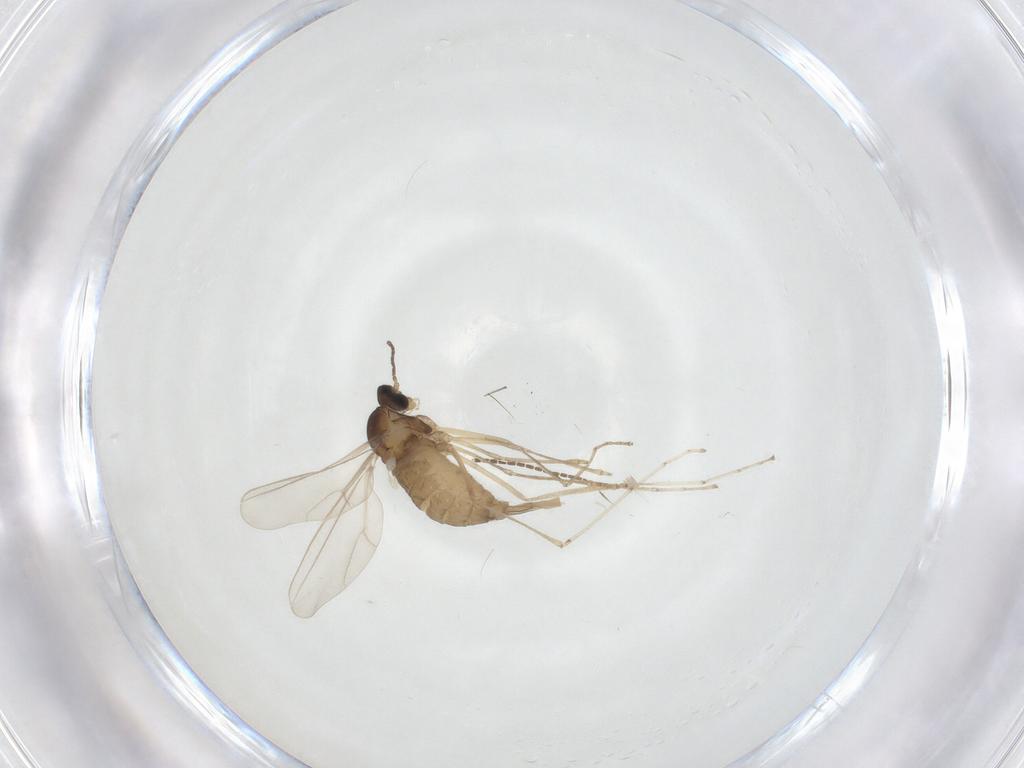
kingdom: Animalia
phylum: Arthropoda
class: Insecta
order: Diptera
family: Cecidomyiidae
